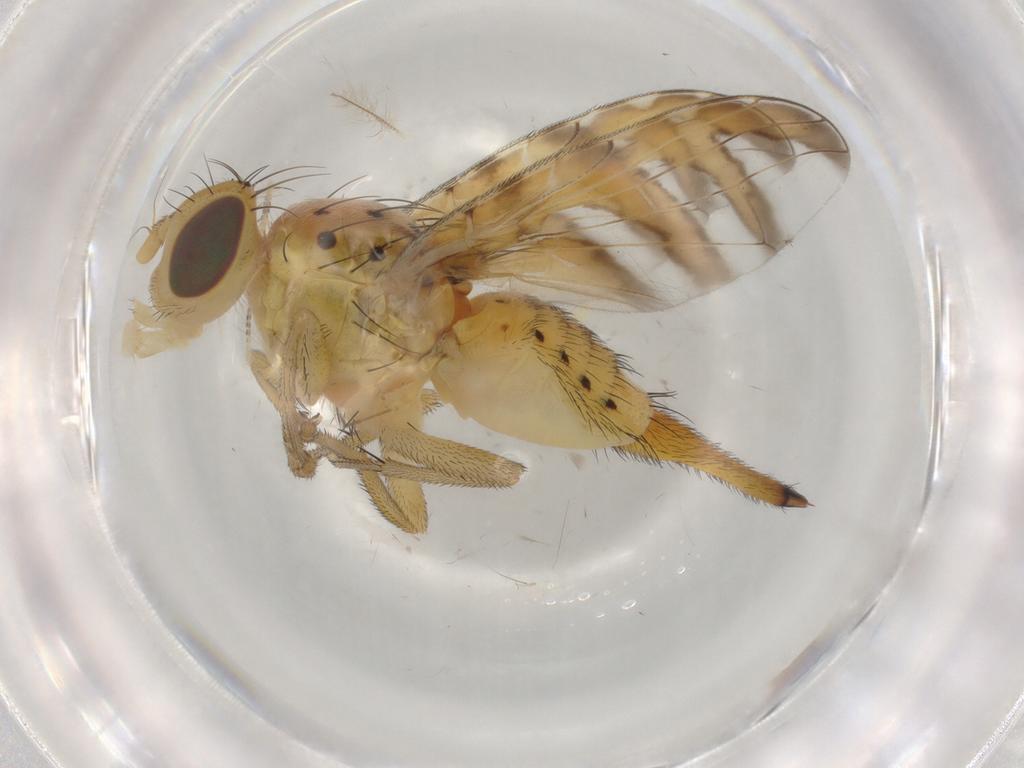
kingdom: Animalia
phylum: Arthropoda
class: Insecta
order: Diptera
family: Tephritidae
